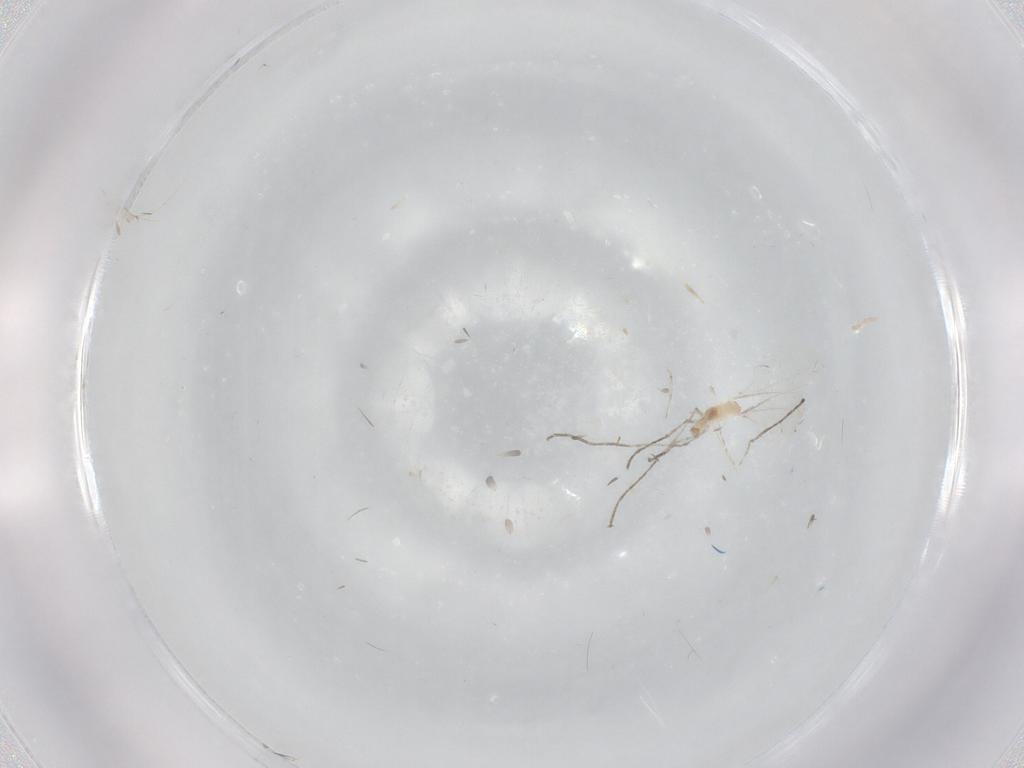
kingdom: Animalia
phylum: Arthropoda
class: Insecta
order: Diptera
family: Cecidomyiidae
